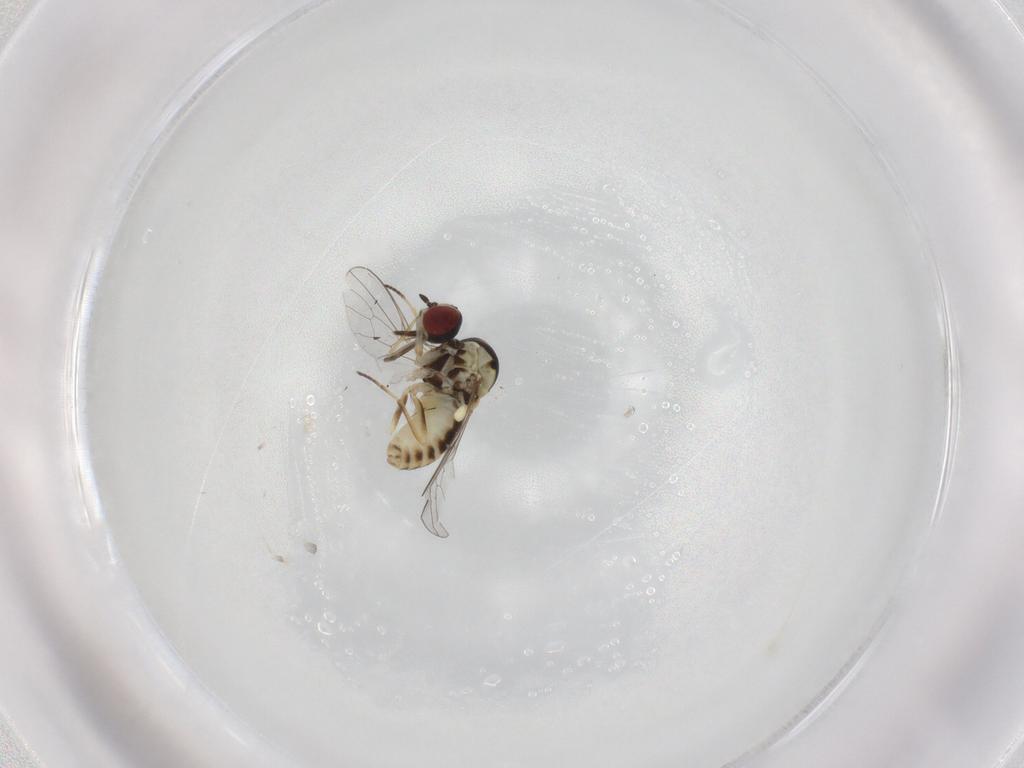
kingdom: Animalia
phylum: Arthropoda
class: Insecta
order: Diptera
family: Bombyliidae
